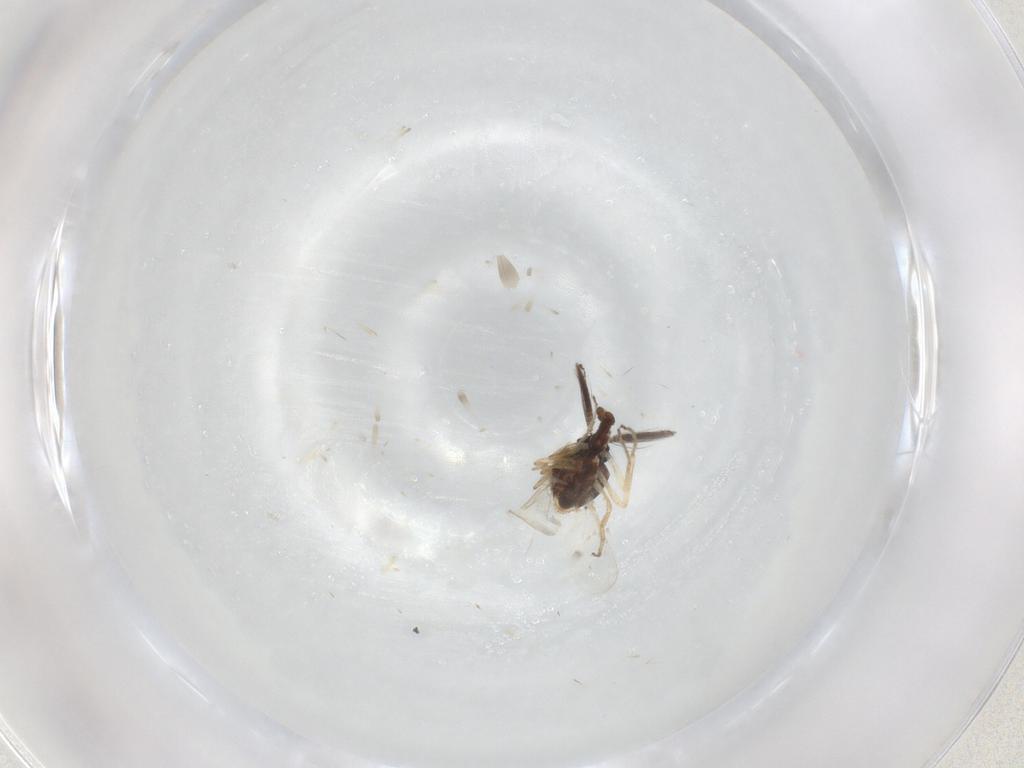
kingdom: Animalia
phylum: Arthropoda
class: Insecta
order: Diptera
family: Ceratopogonidae
